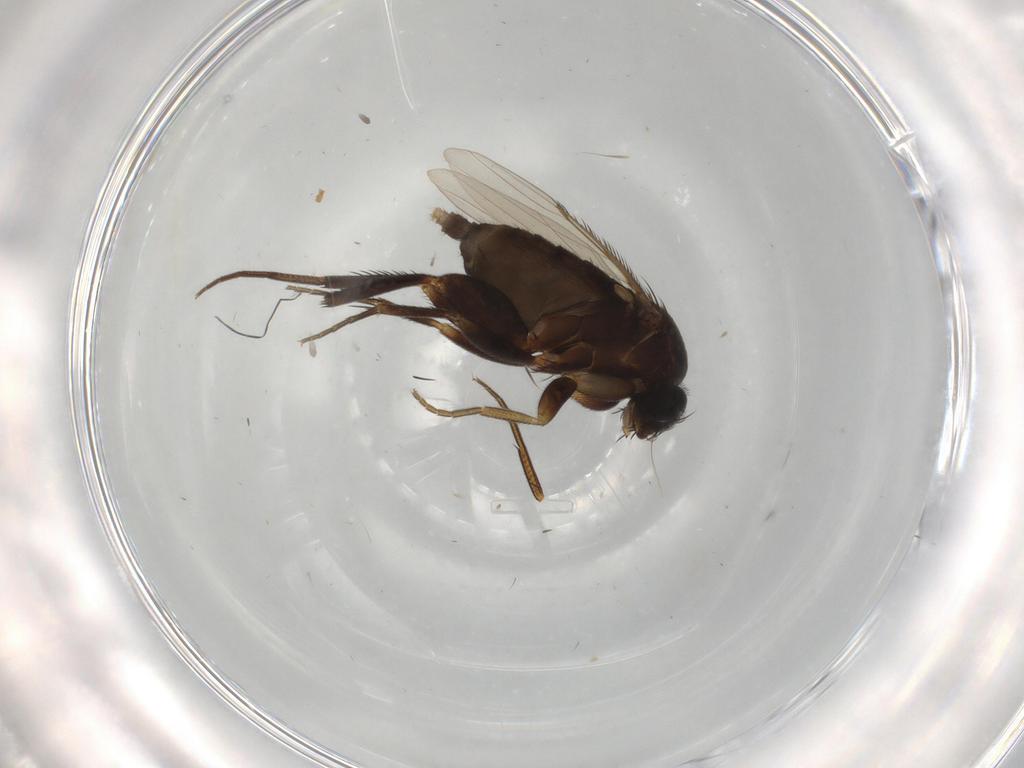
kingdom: Animalia
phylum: Arthropoda
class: Insecta
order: Diptera
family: Phoridae
